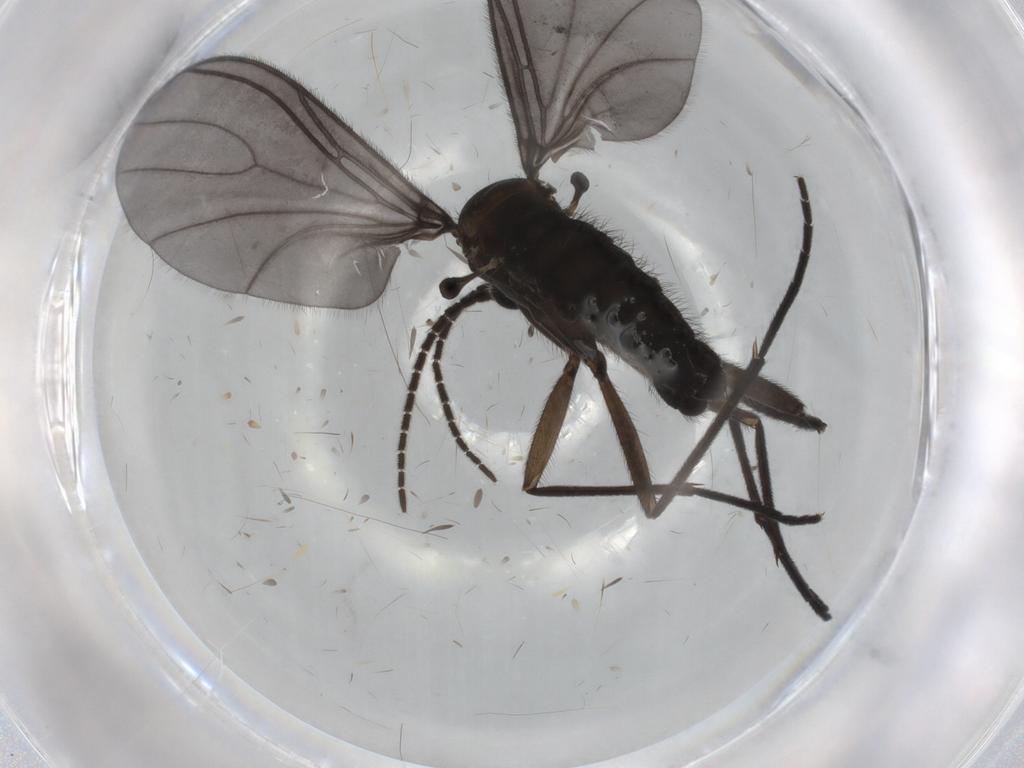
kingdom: Animalia
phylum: Arthropoda
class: Insecta
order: Diptera
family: Sciaridae
